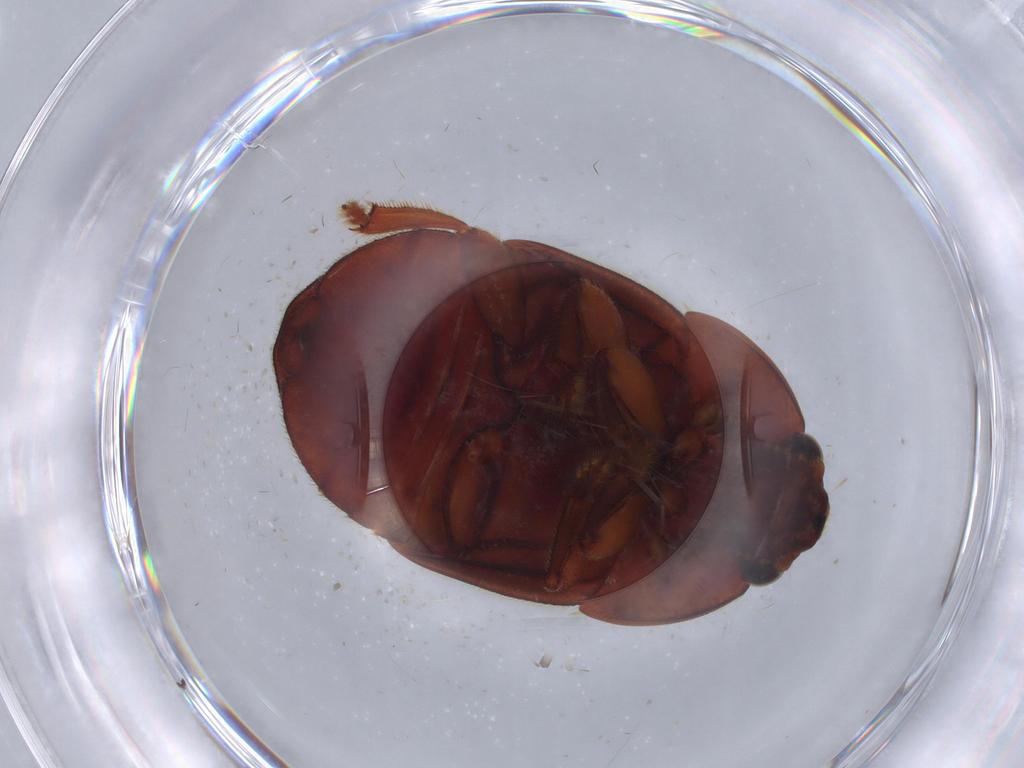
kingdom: Animalia
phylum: Arthropoda
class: Insecta
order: Coleoptera
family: Nitidulidae
